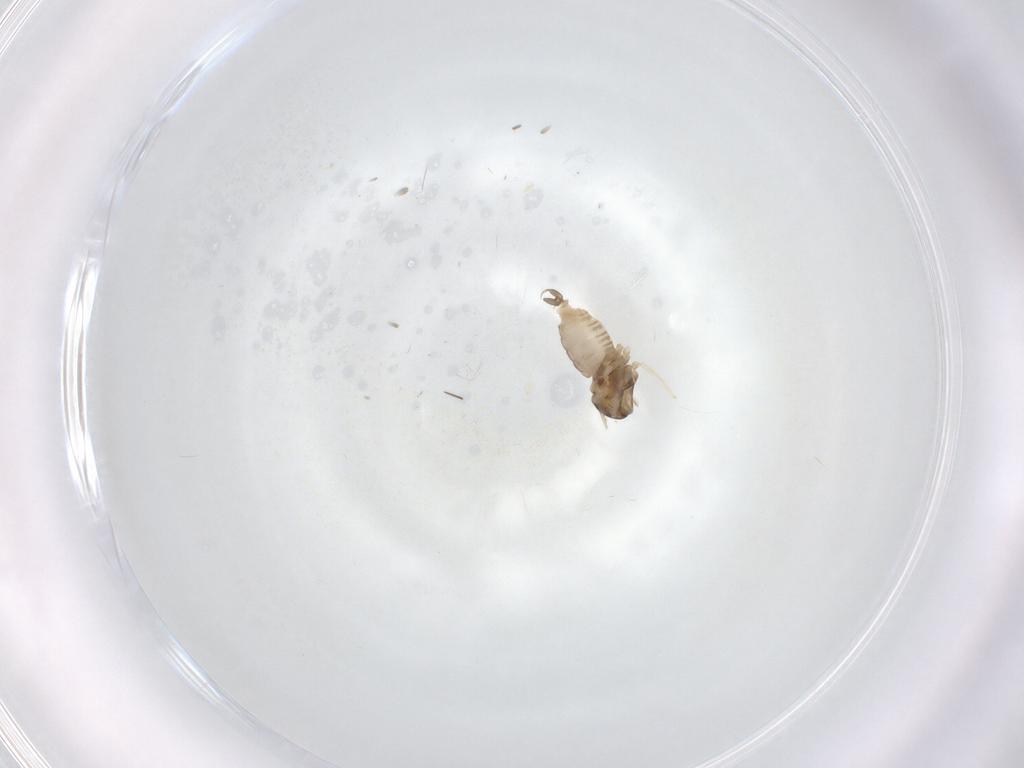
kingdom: Animalia
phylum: Arthropoda
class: Insecta
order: Diptera
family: Cecidomyiidae
